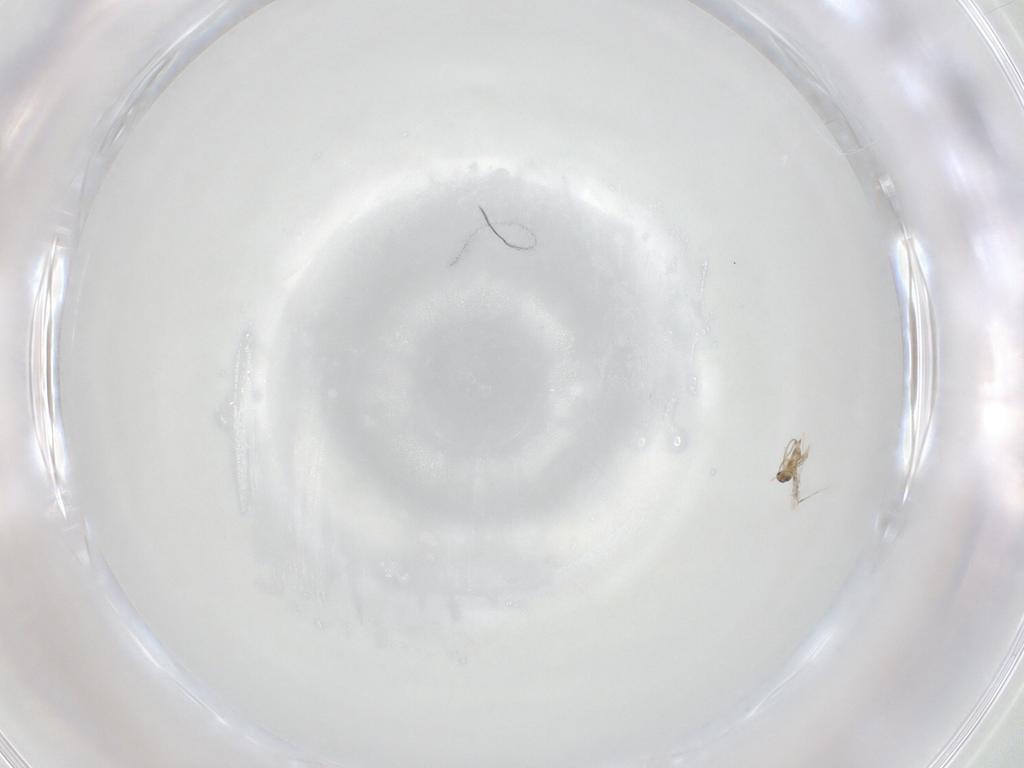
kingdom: Animalia
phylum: Arthropoda
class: Insecta
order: Hymenoptera
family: Mymaridae
